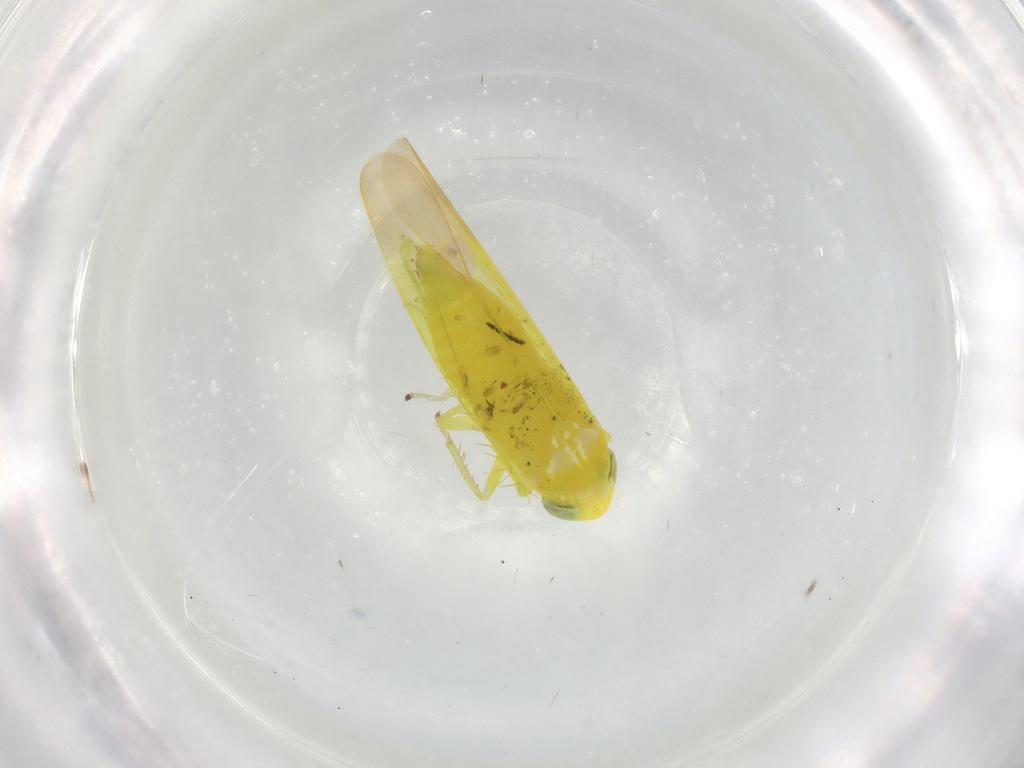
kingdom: Animalia
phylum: Arthropoda
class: Insecta
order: Hemiptera
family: Cicadellidae
